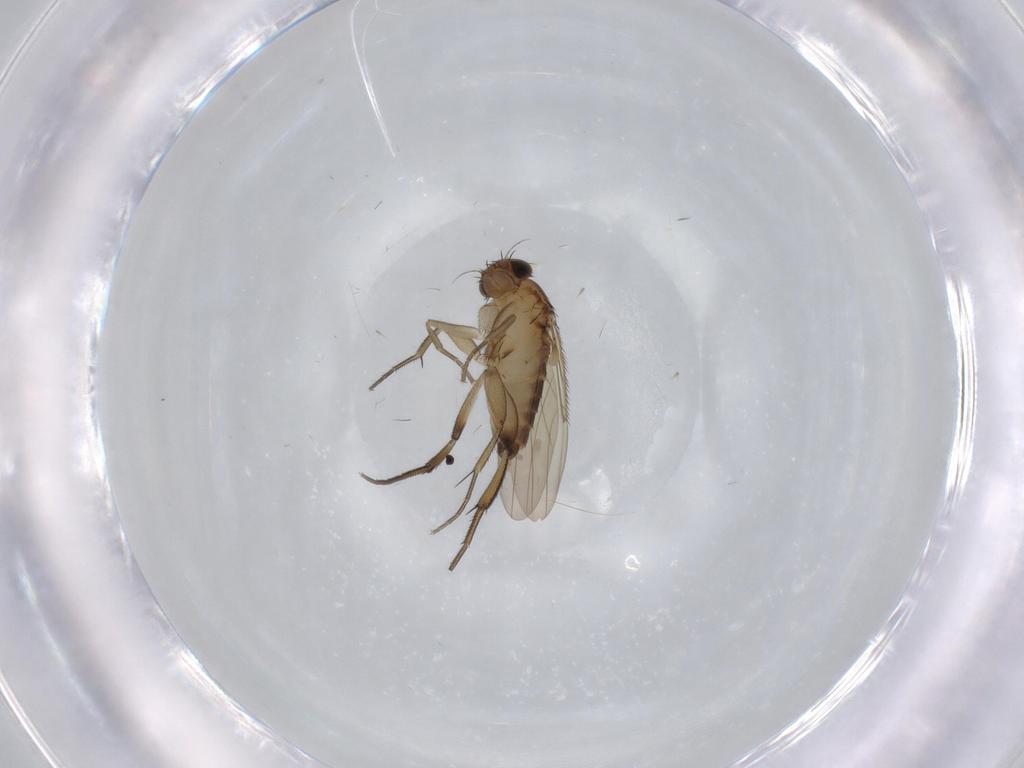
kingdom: Animalia
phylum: Arthropoda
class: Insecta
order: Diptera
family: Phoridae
